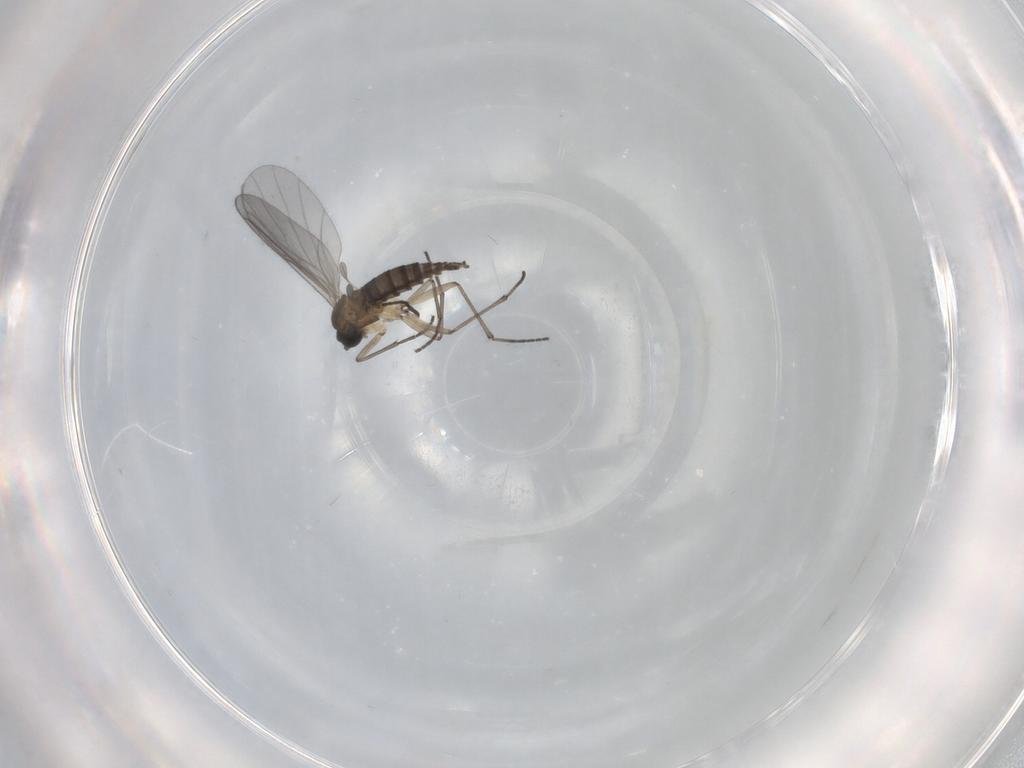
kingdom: Animalia
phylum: Arthropoda
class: Insecta
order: Diptera
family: Sciaridae
